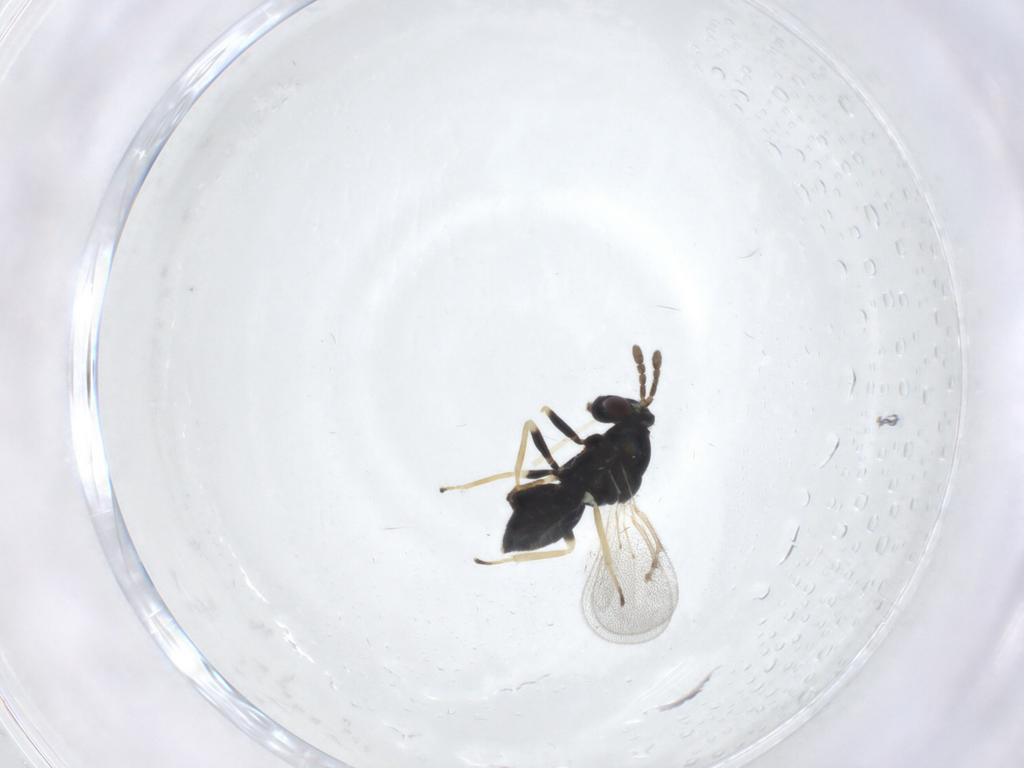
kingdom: Animalia
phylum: Arthropoda
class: Insecta
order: Hymenoptera
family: Eulophidae
